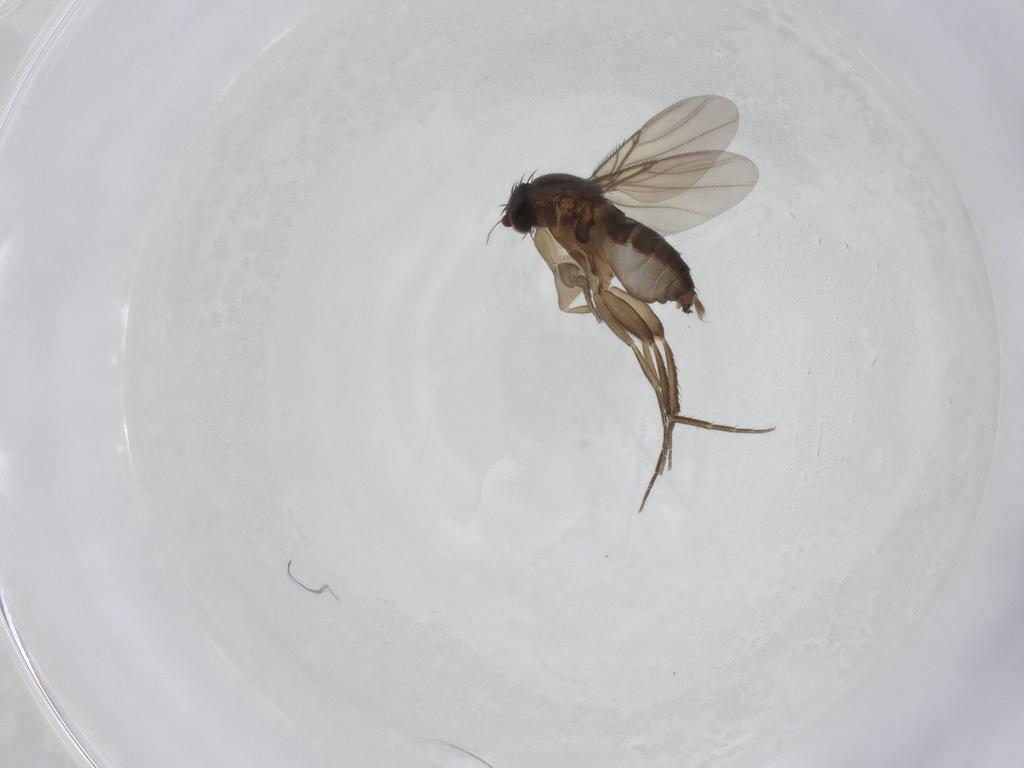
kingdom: Animalia
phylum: Arthropoda
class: Insecta
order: Diptera
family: Phoridae
